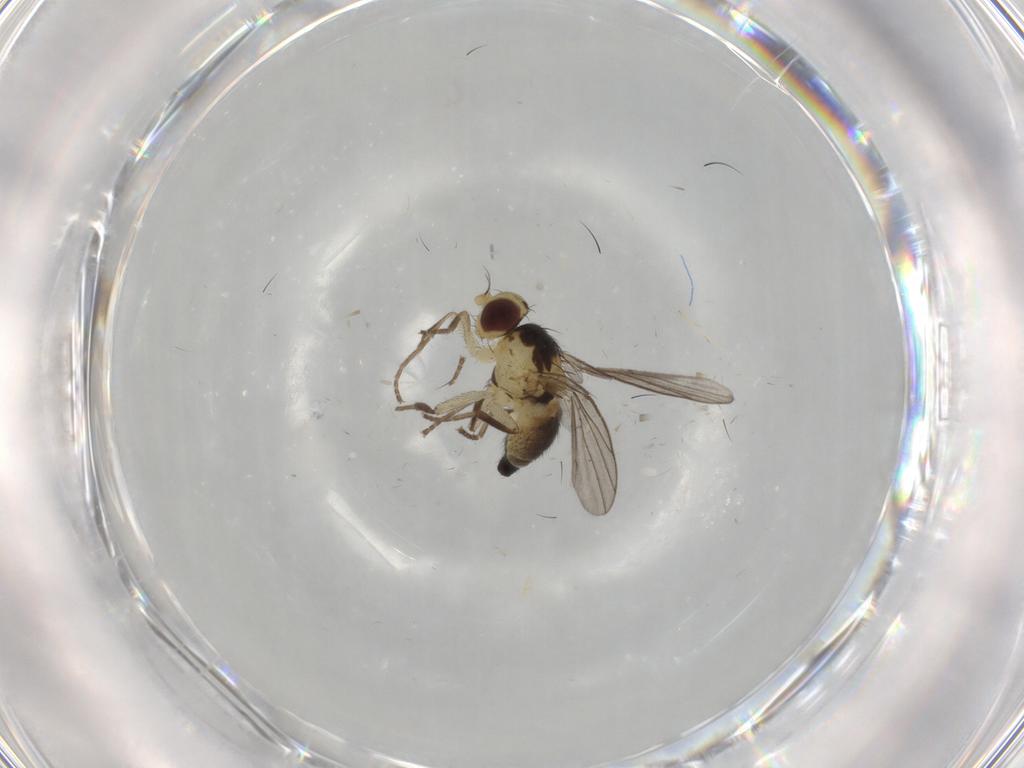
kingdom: Animalia
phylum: Arthropoda
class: Insecta
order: Diptera
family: Agromyzidae
